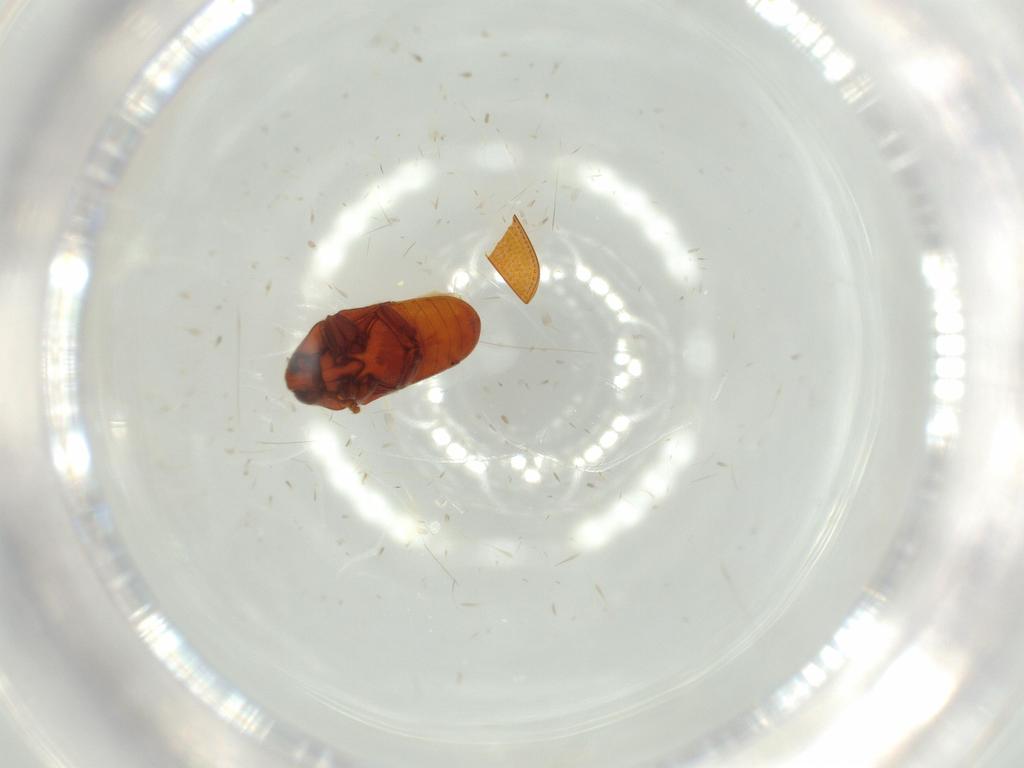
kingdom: Animalia
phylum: Arthropoda
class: Insecta
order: Coleoptera
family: Throscidae
